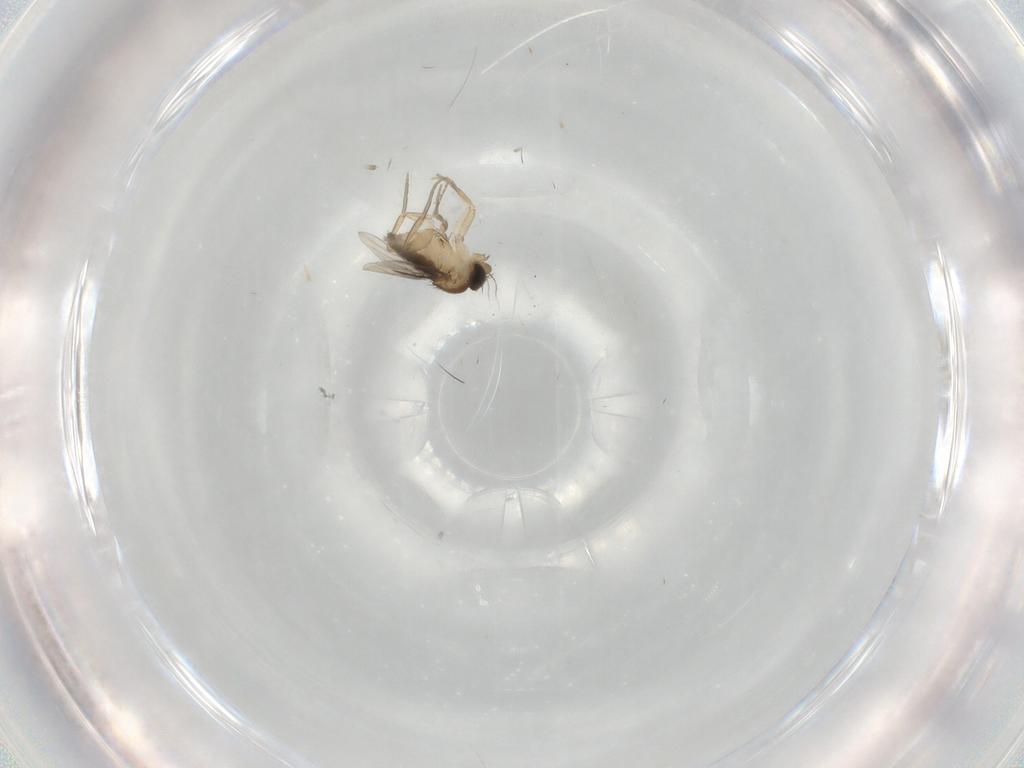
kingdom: Animalia
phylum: Arthropoda
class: Insecta
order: Diptera
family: Phoridae
